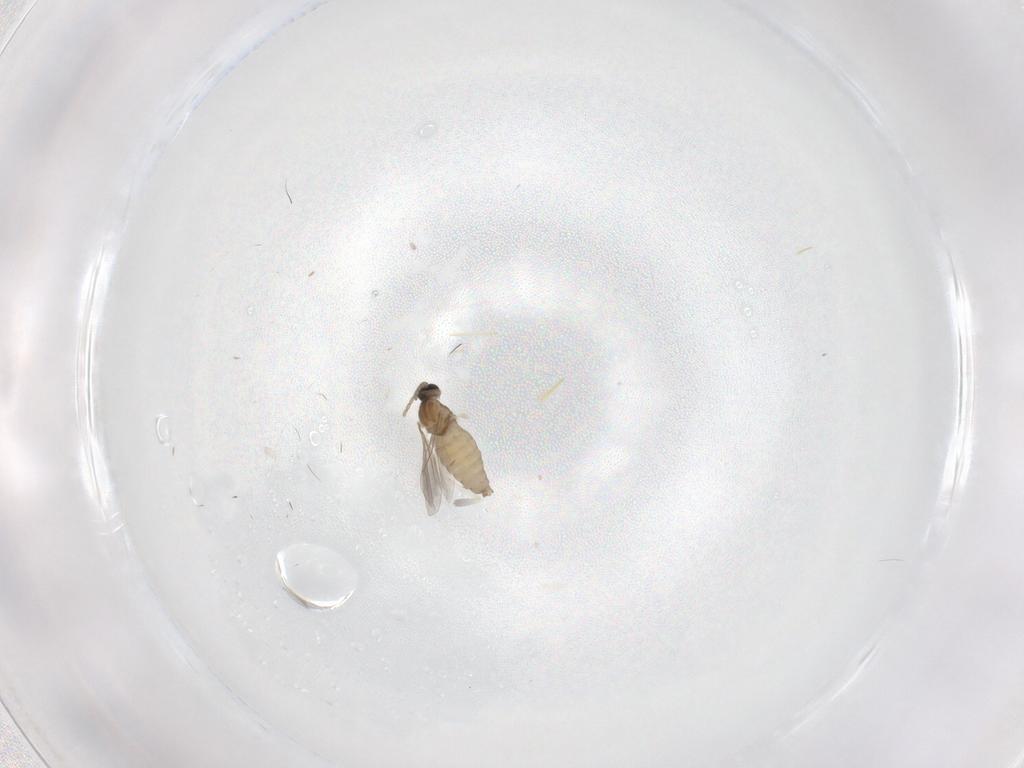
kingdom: Animalia
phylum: Arthropoda
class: Insecta
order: Diptera
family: Cecidomyiidae
